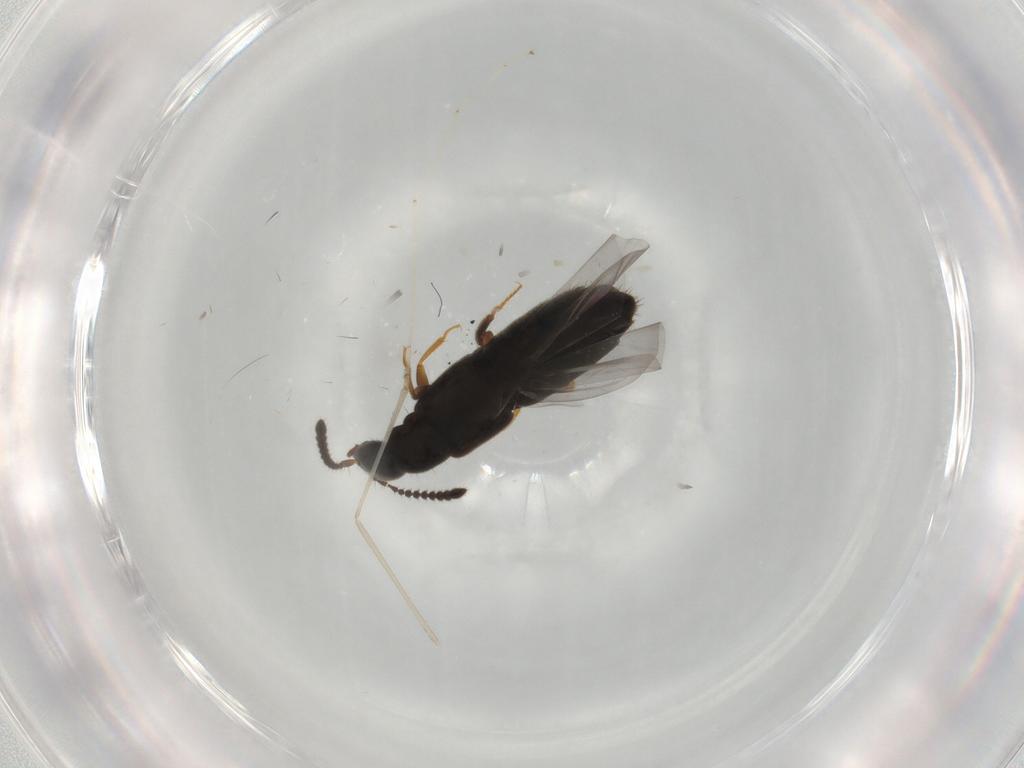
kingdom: Animalia
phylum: Arthropoda
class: Insecta
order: Coleoptera
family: Staphylinidae
